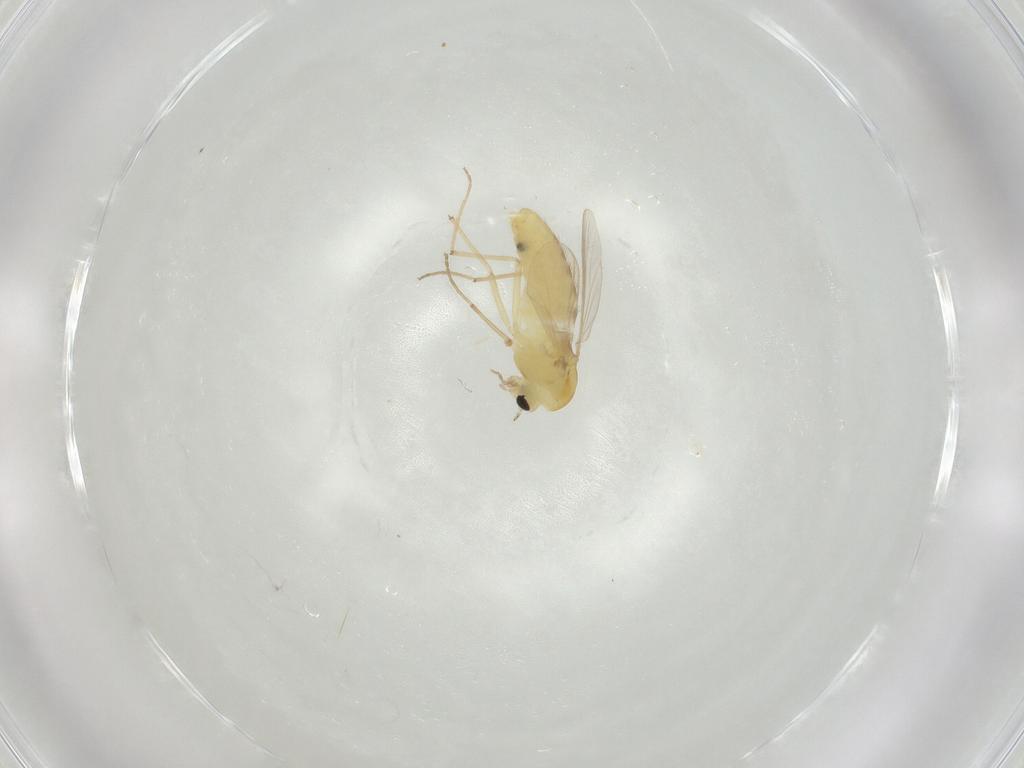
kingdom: Animalia
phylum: Arthropoda
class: Insecta
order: Diptera
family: Chironomidae
